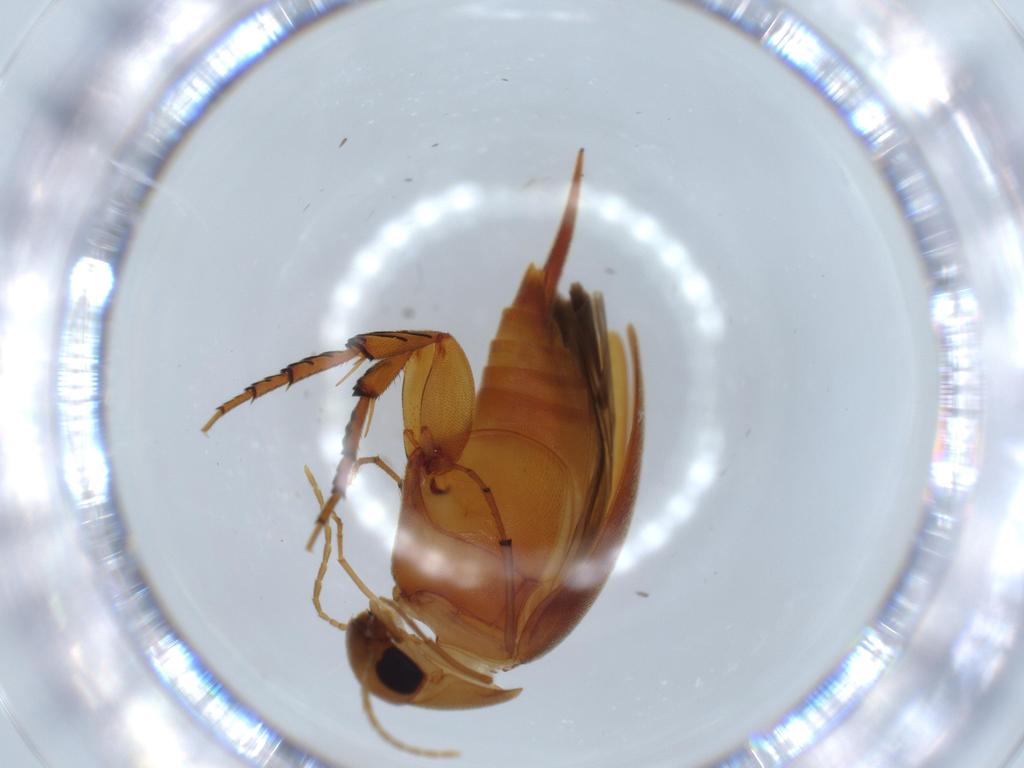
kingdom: Animalia
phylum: Arthropoda
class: Insecta
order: Coleoptera
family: Mordellidae
